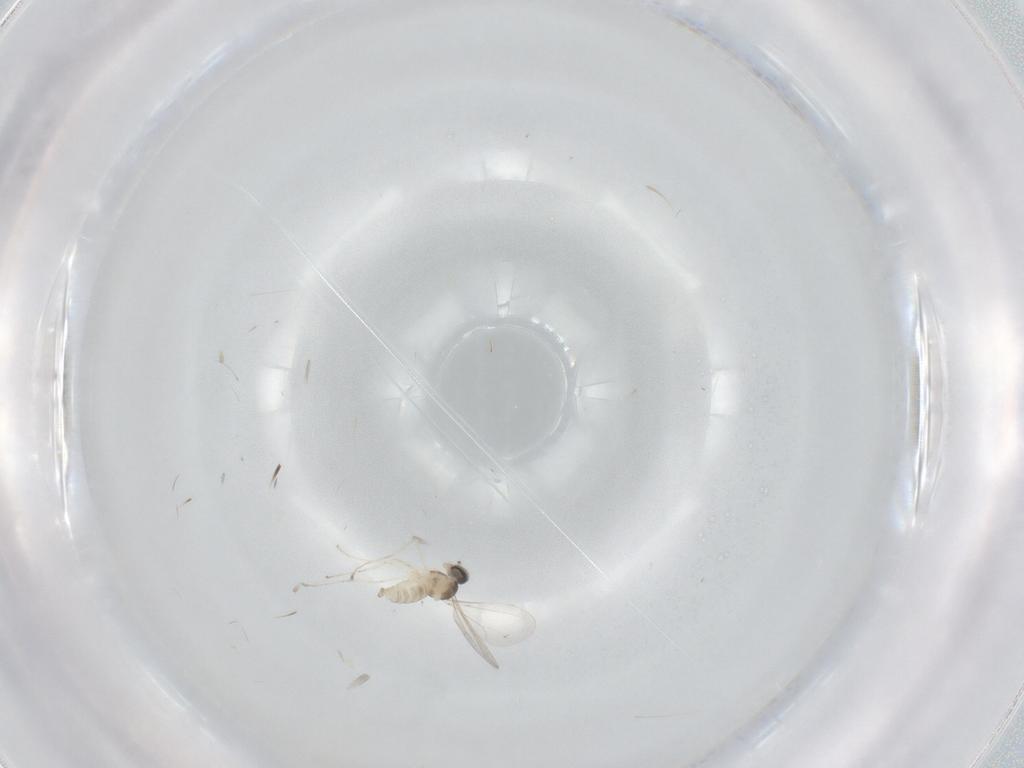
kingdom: Animalia
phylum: Arthropoda
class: Insecta
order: Diptera
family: Cecidomyiidae
